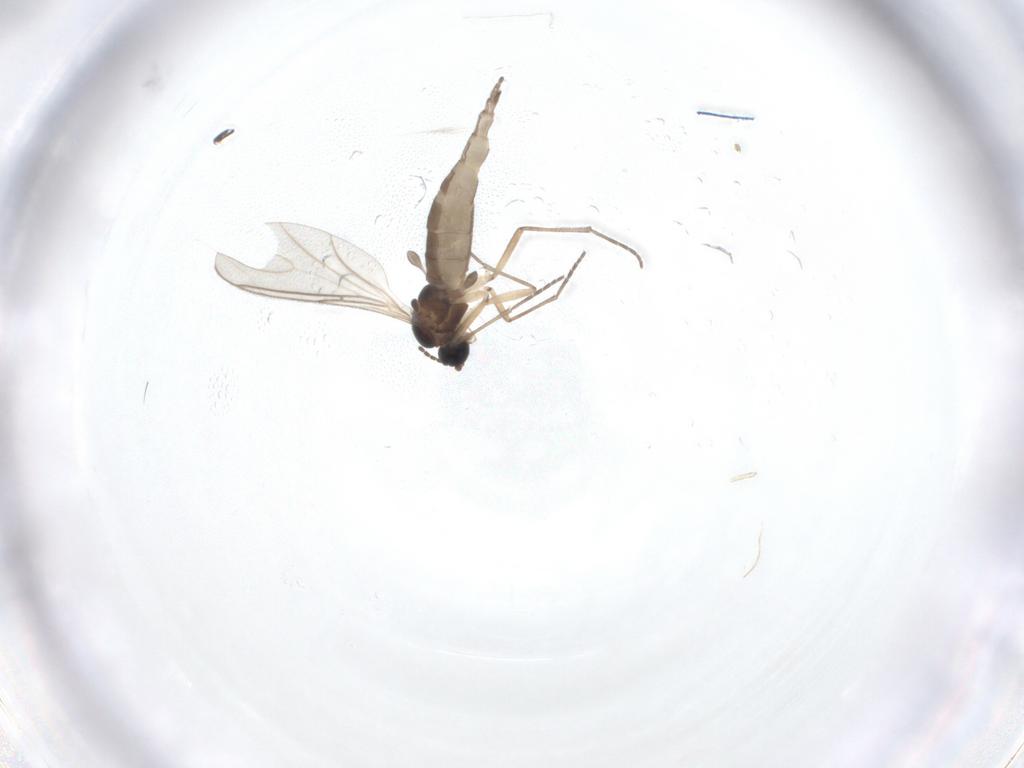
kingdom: Animalia
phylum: Arthropoda
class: Insecta
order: Diptera
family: Sciaridae
